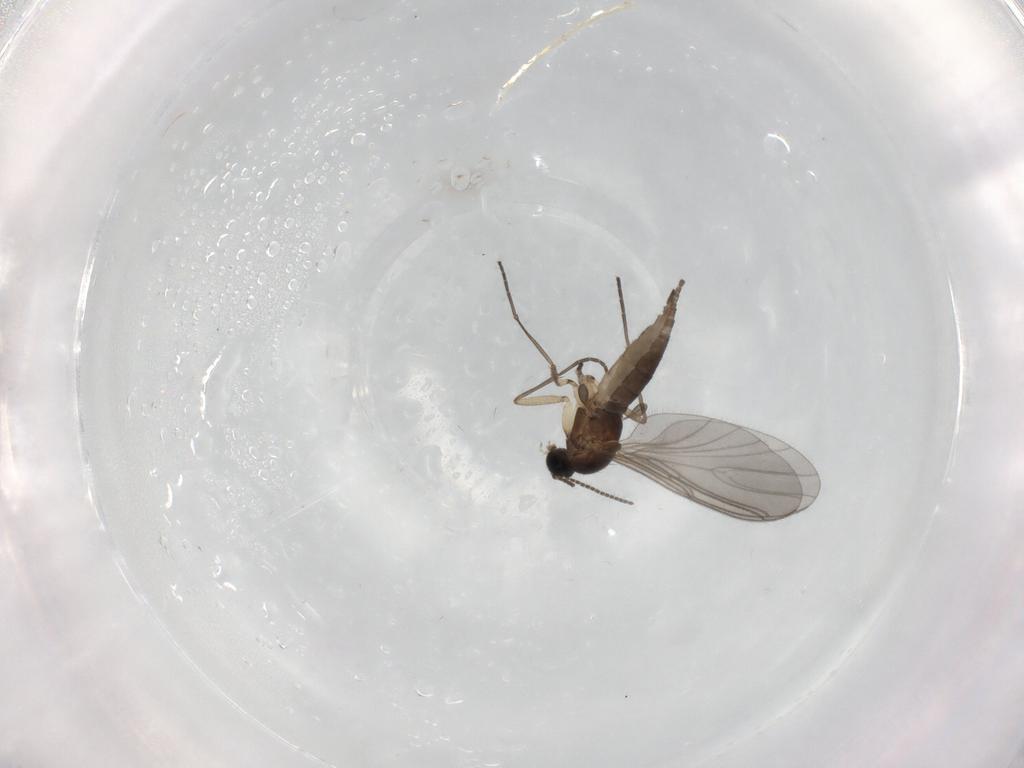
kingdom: Animalia
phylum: Arthropoda
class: Insecta
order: Diptera
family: Sciaridae
